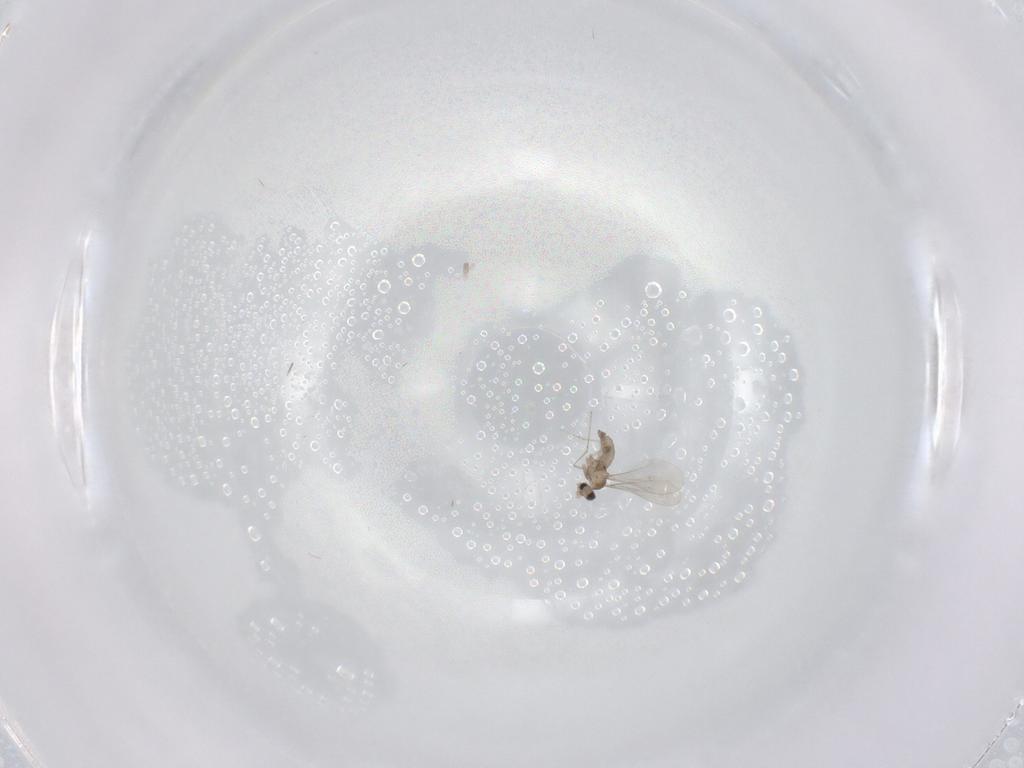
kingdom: Animalia
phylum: Arthropoda
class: Insecta
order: Diptera
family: Cecidomyiidae
